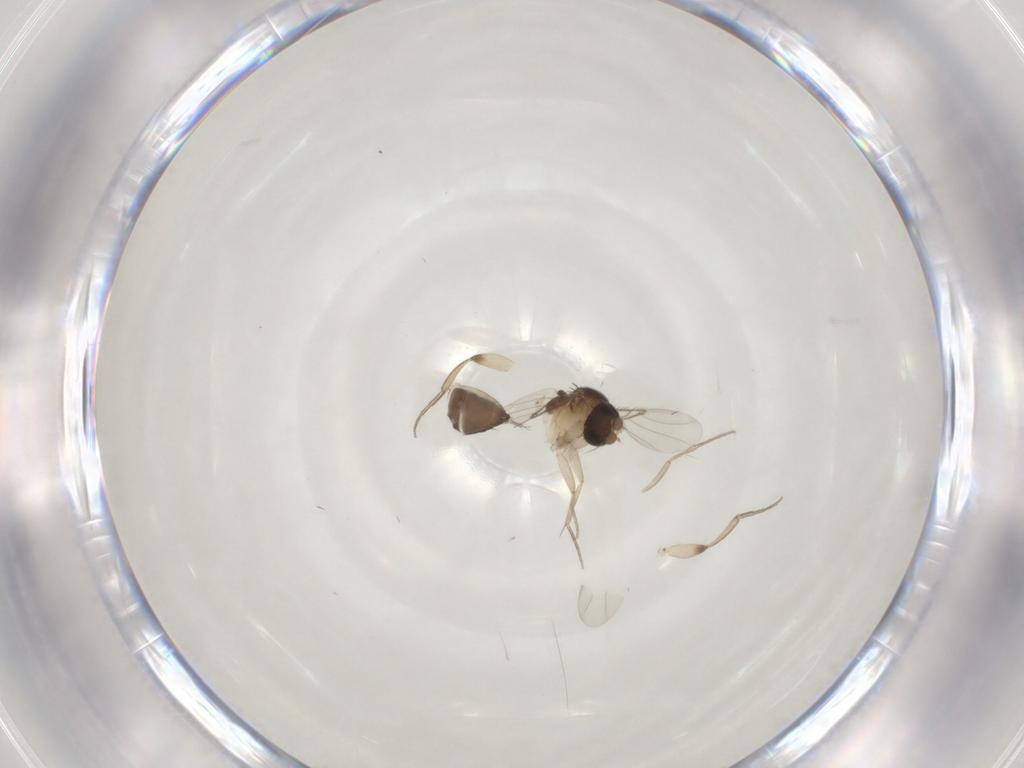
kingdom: Animalia
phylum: Arthropoda
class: Insecta
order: Diptera
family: Phoridae
